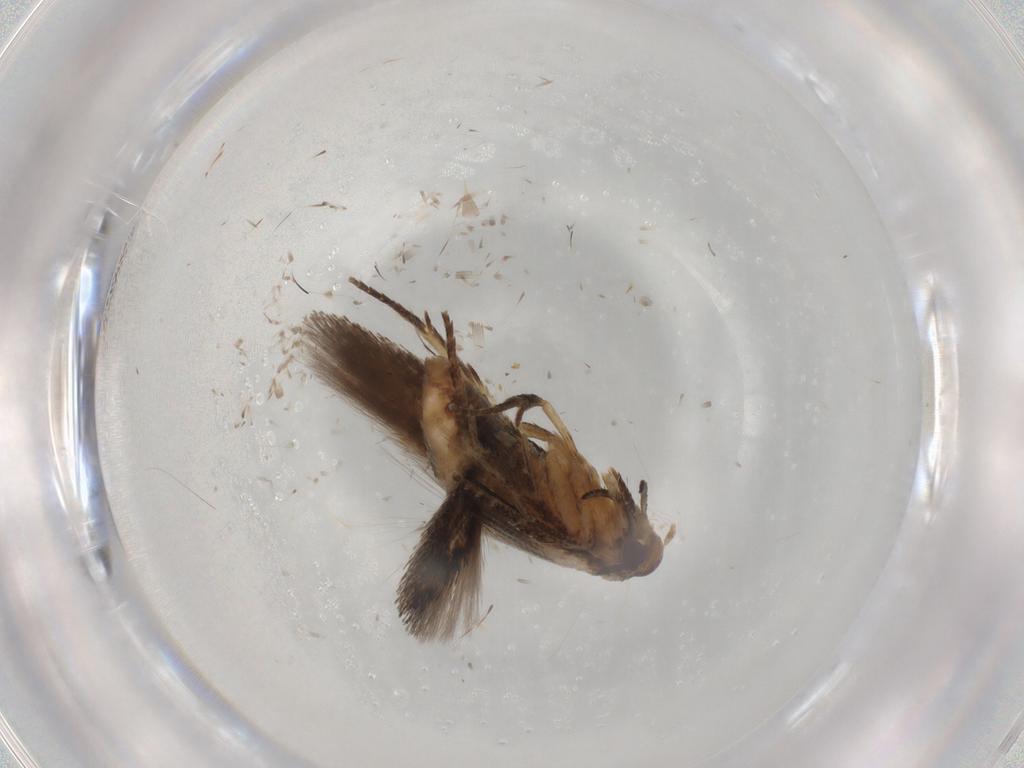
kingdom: Animalia
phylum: Arthropoda
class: Insecta
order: Lepidoptera
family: Cosmopterigidae
